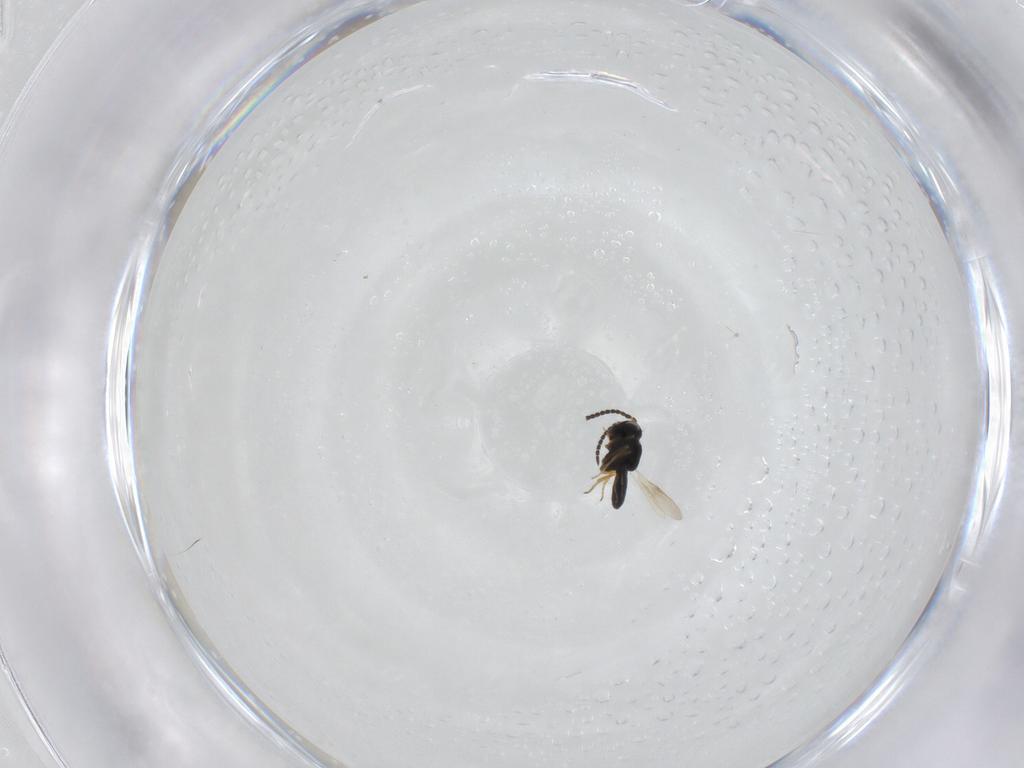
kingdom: Animalia
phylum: Arthropoda
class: Insecta
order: Hymenoptera
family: Scelionidae
